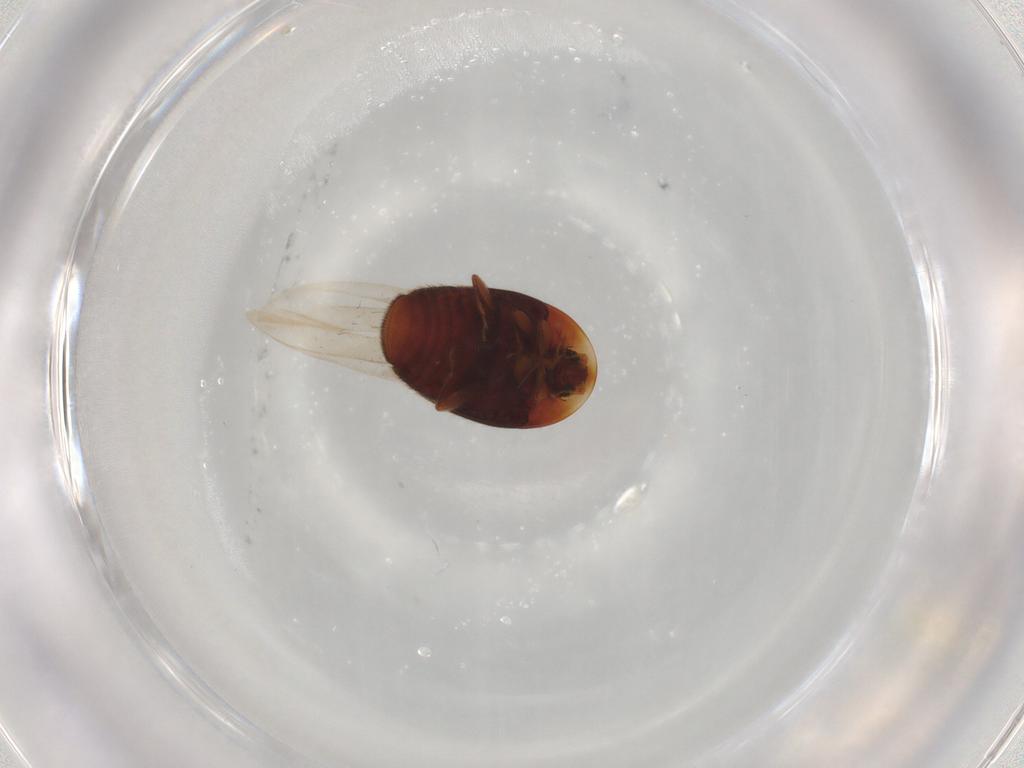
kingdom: Animalia
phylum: Arthropoda
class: Insecta
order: Coleoptera
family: Corylophidae
